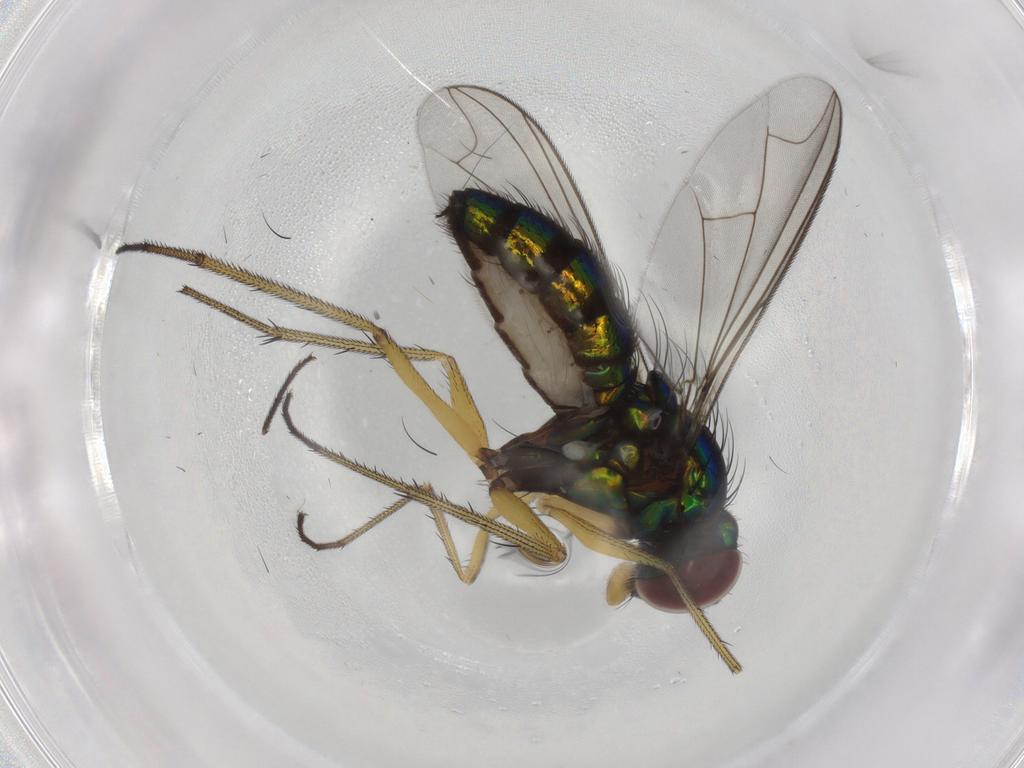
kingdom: Animalia
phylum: Arthropoda
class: Insecta
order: Diptera
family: Dolichopodidae
